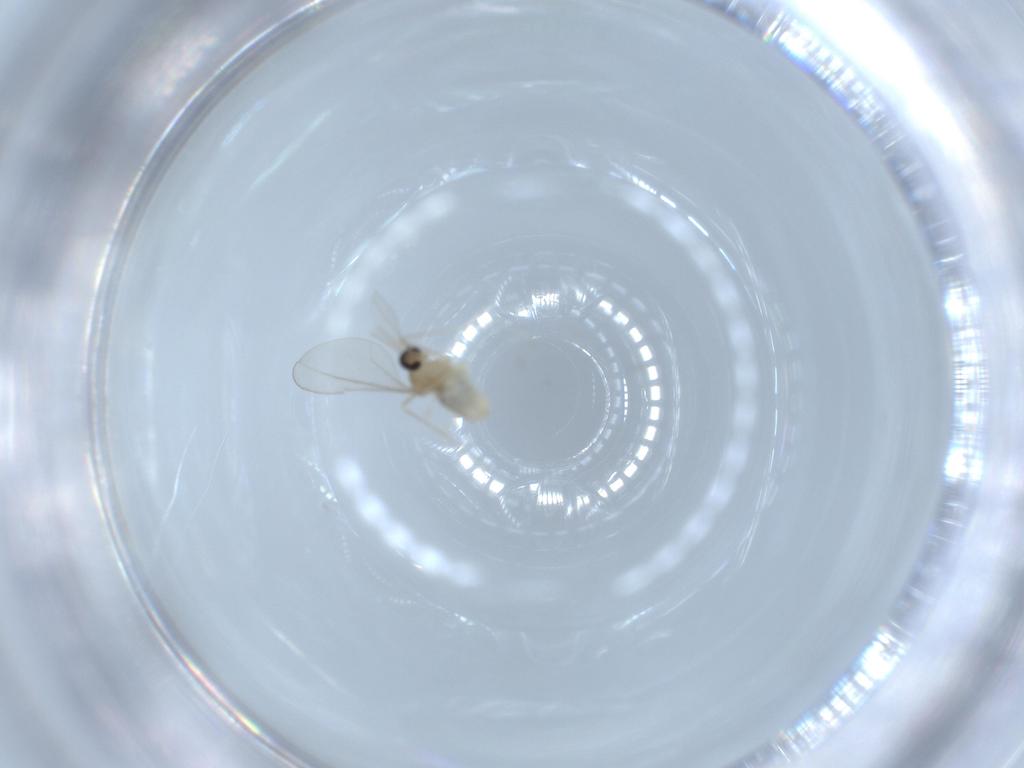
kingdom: Animalia
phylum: Arthropoda
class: Insecta
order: Diptera
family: Cecidomyiidae
